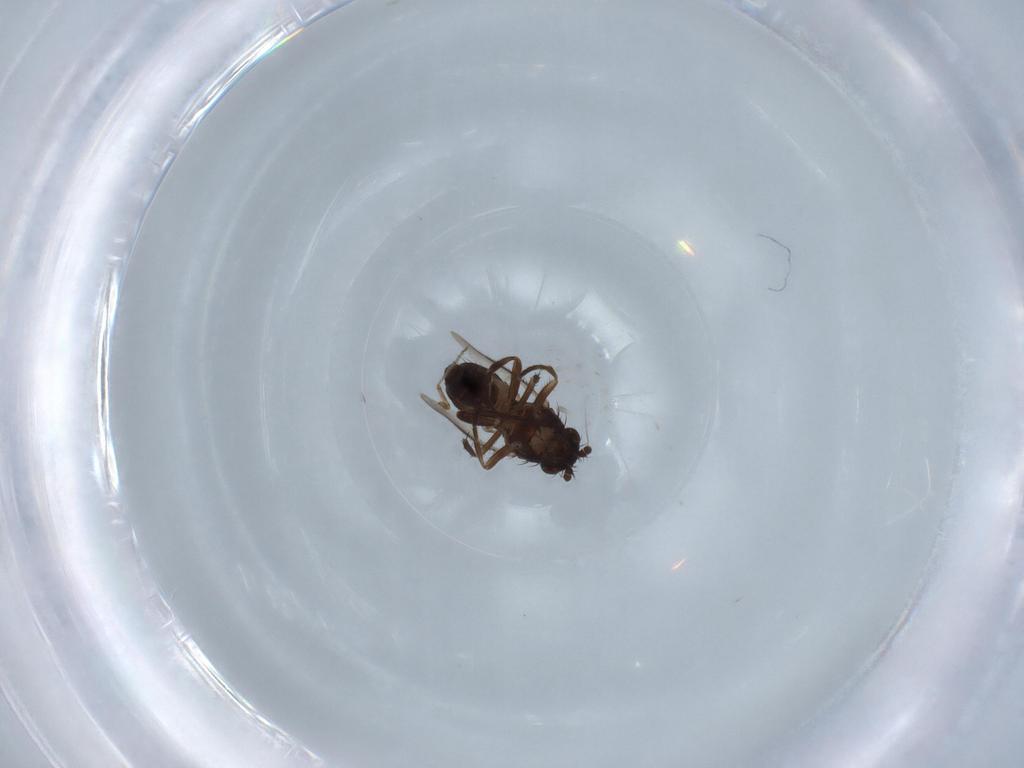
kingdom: Animalia
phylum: Arthropoda
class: Insecta
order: Diptera
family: Sphaeroceridae
